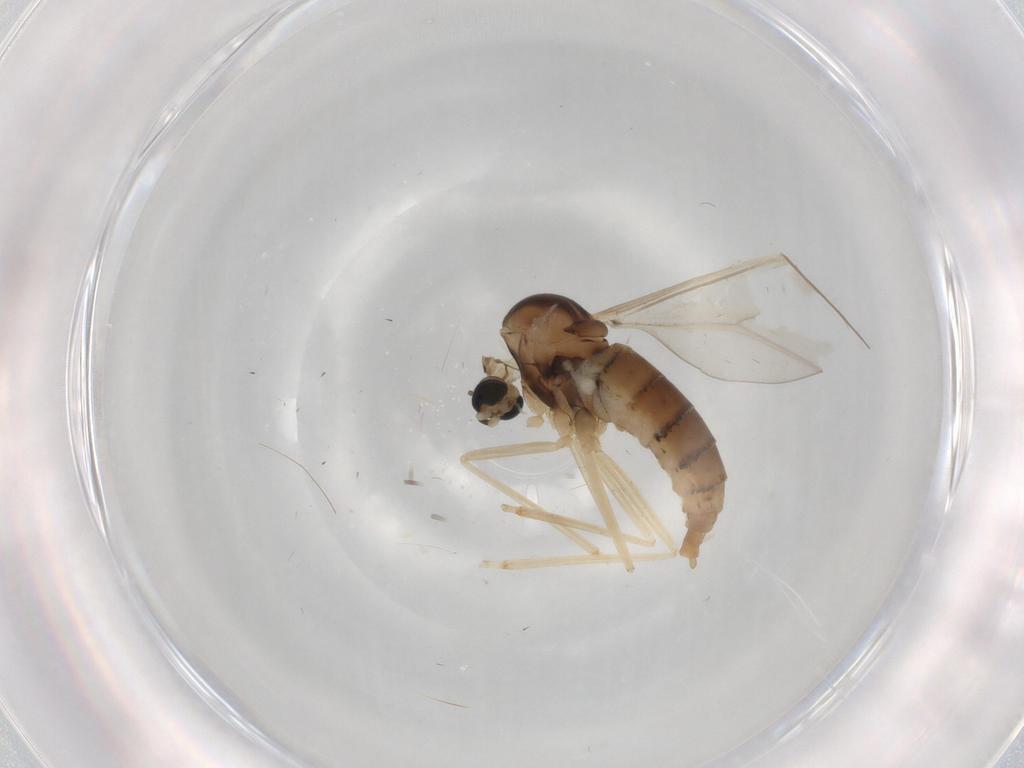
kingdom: Animalia
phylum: Arthropoda
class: Insecta
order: Diptera
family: Cecidomyiidae
